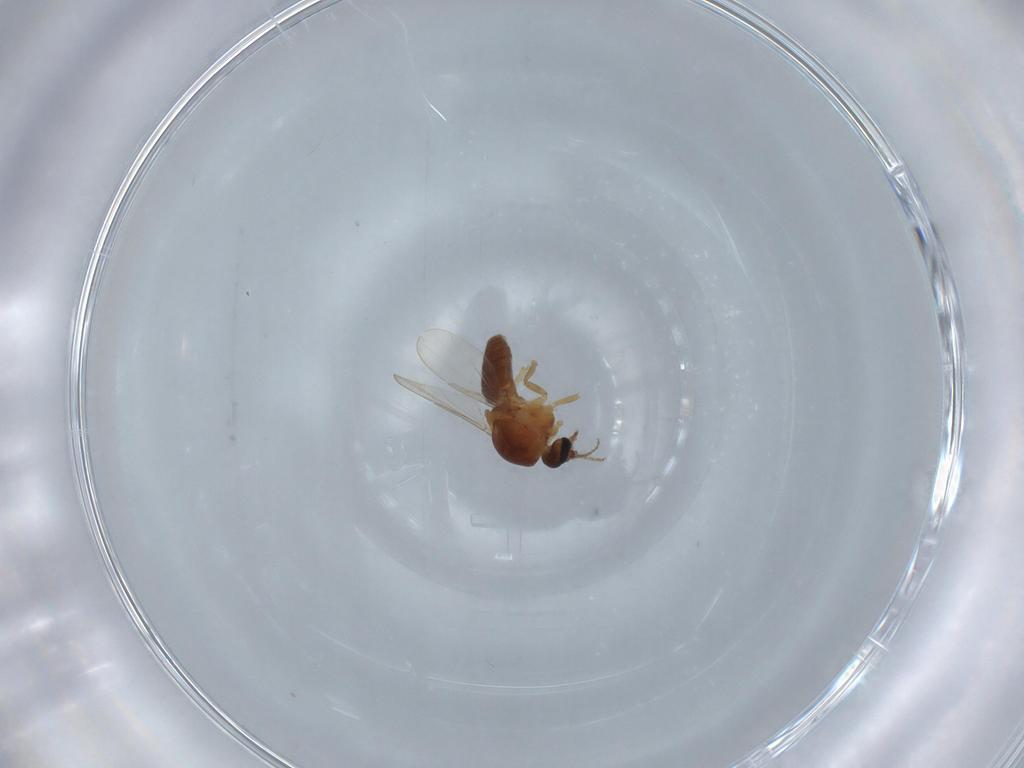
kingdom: Animalia
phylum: Arthropoda
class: Insecta
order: Diptera
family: Ceratopogonidae
